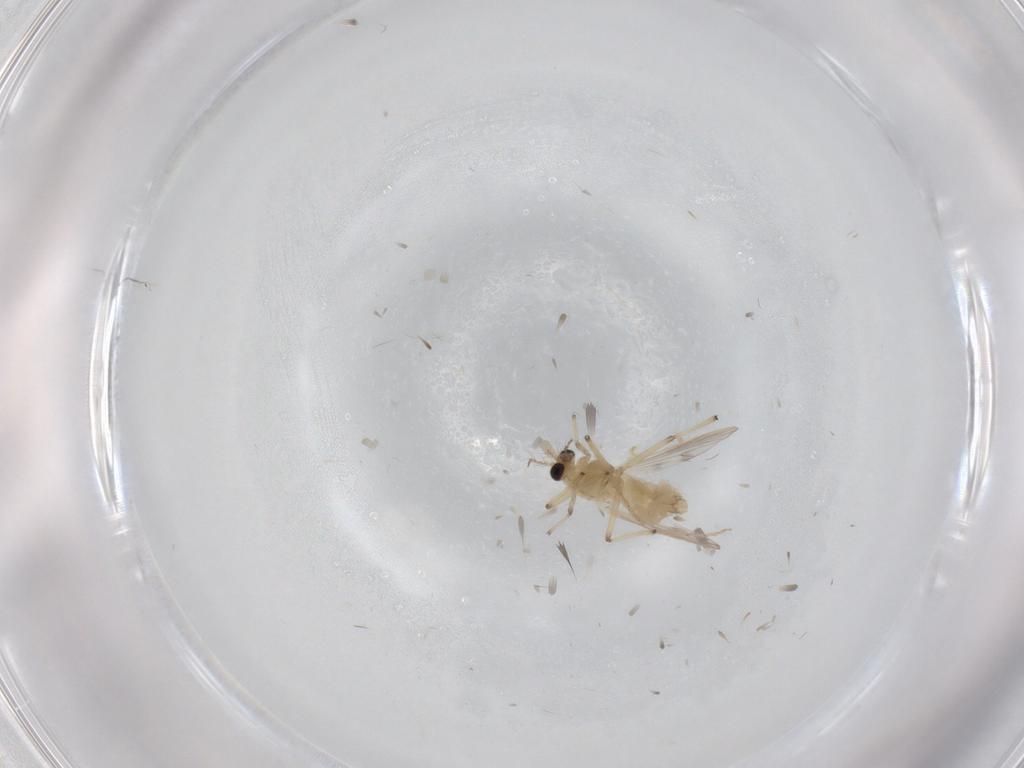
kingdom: Animalia
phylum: Arthropoda
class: Insecta
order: Diptera
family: Chironomidae
